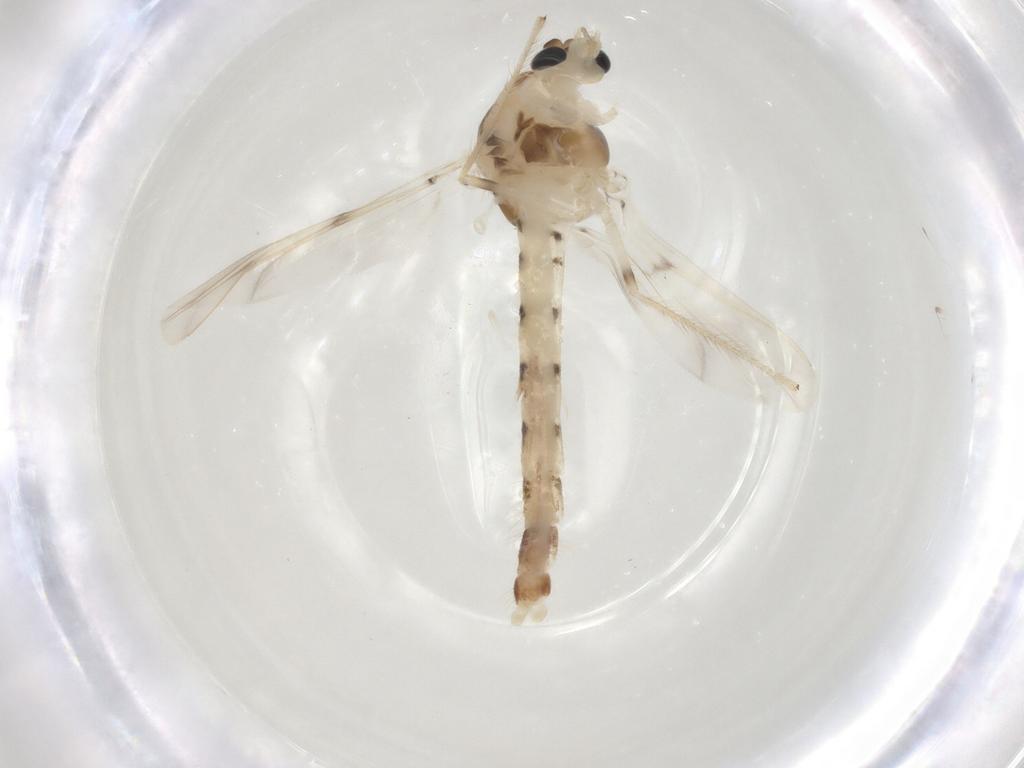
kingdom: Animalia
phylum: Arthropoda
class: Insecta
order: Diptera
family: Chironomidae
